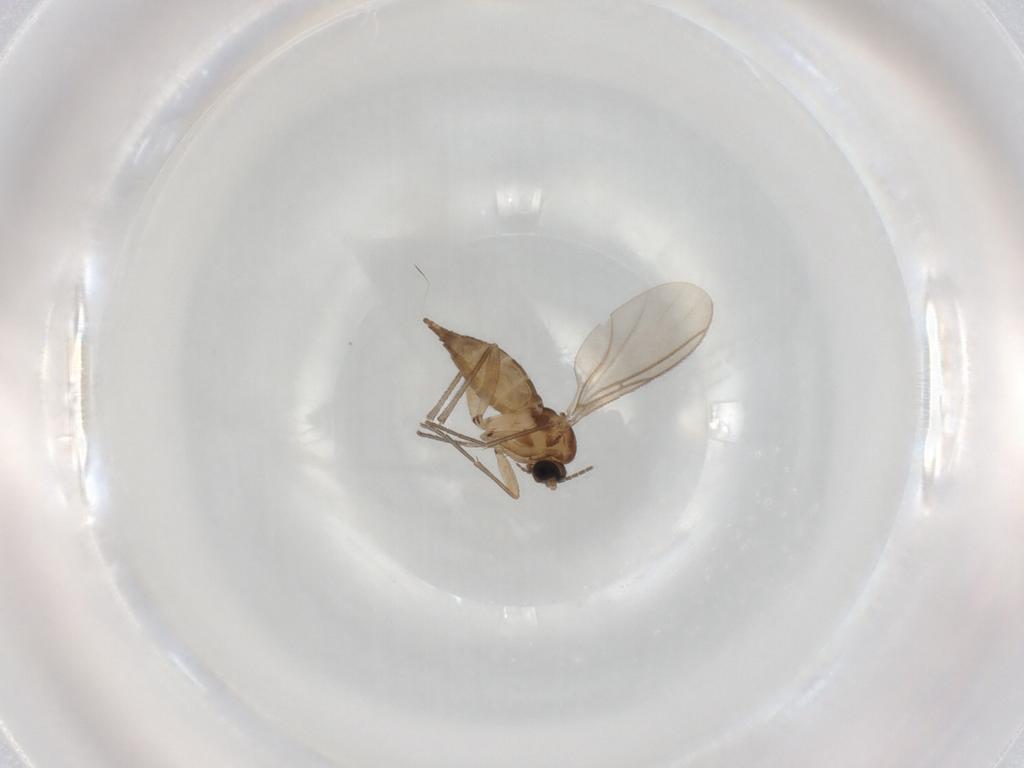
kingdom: Animalia
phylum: Arthropoda
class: Insecta
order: Diptera
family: Sciaridae
